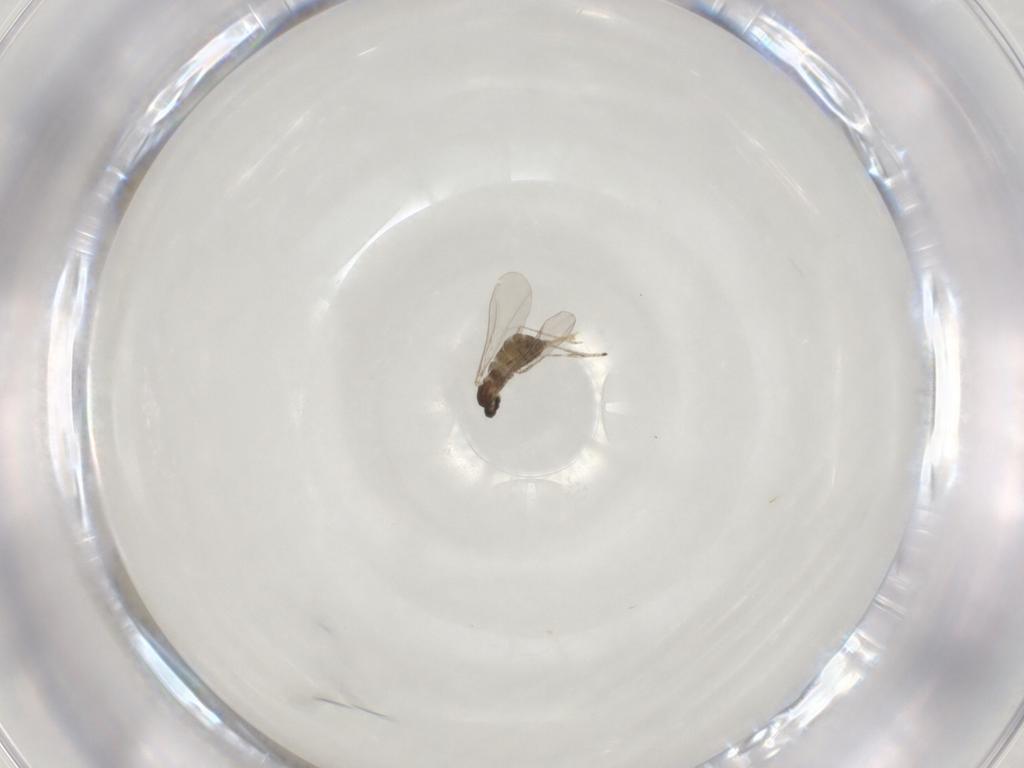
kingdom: Animalia
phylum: Arthropoda
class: Insecta
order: Diptera
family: Cecidomyiidae
